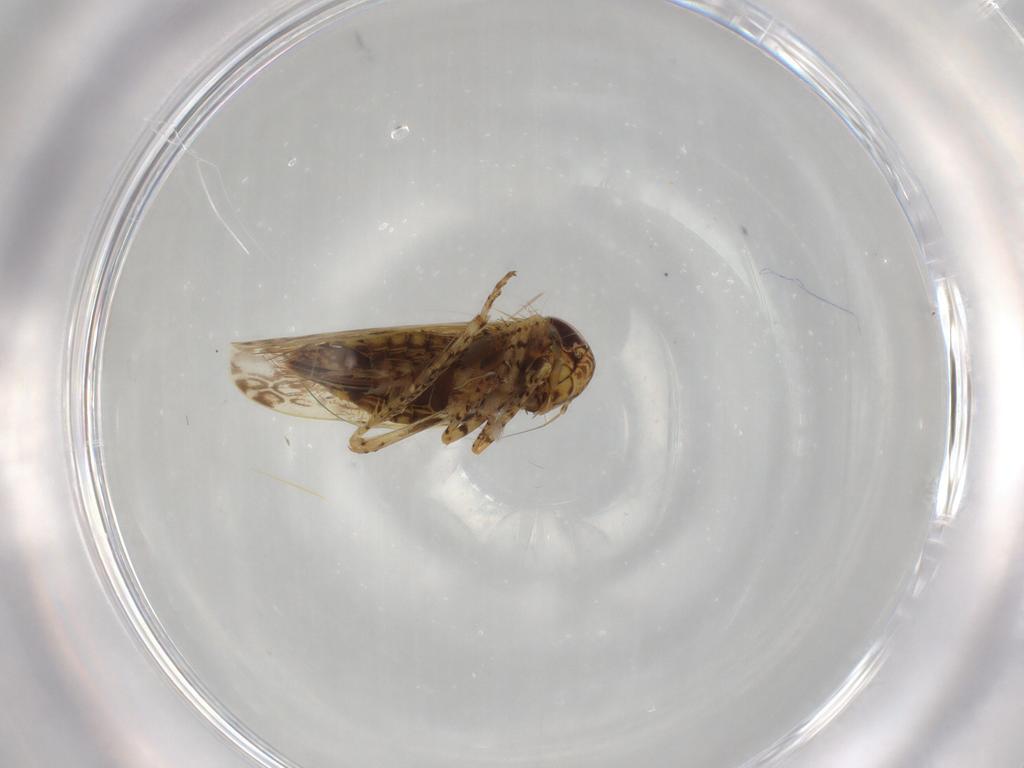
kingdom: Animalia
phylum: Arthropoda
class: Insecta
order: Hemiptera
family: Cicadellidae
